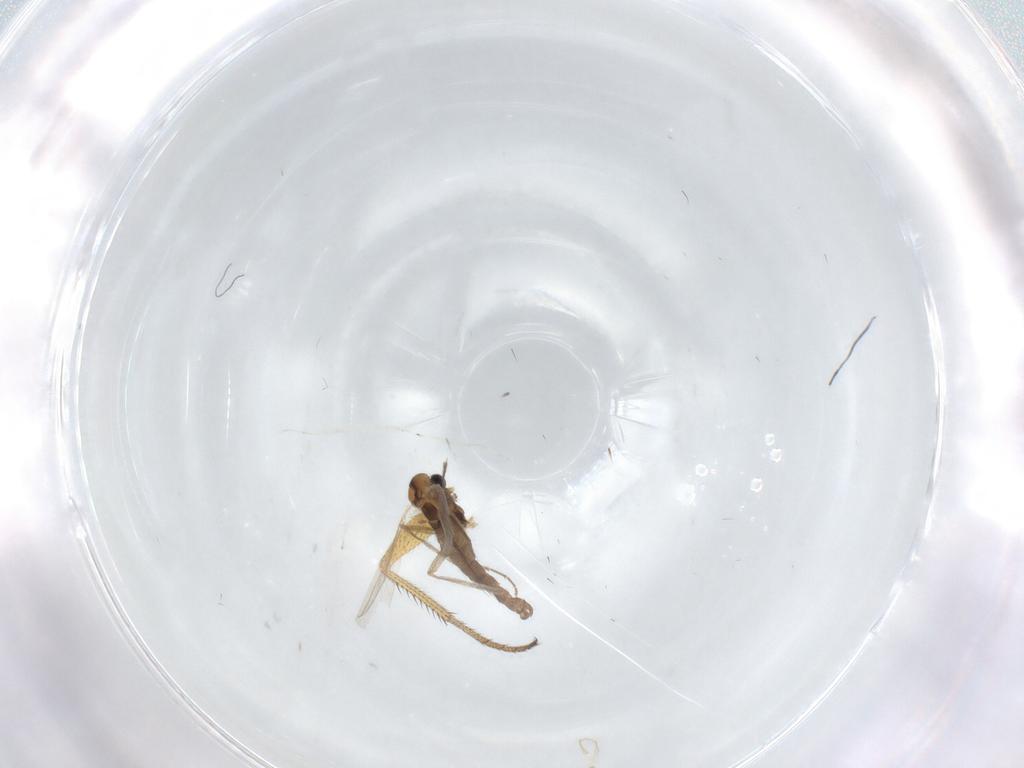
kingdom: Animalia
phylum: Arthropoda
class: Insecta
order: Diptera
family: Chironomidae
